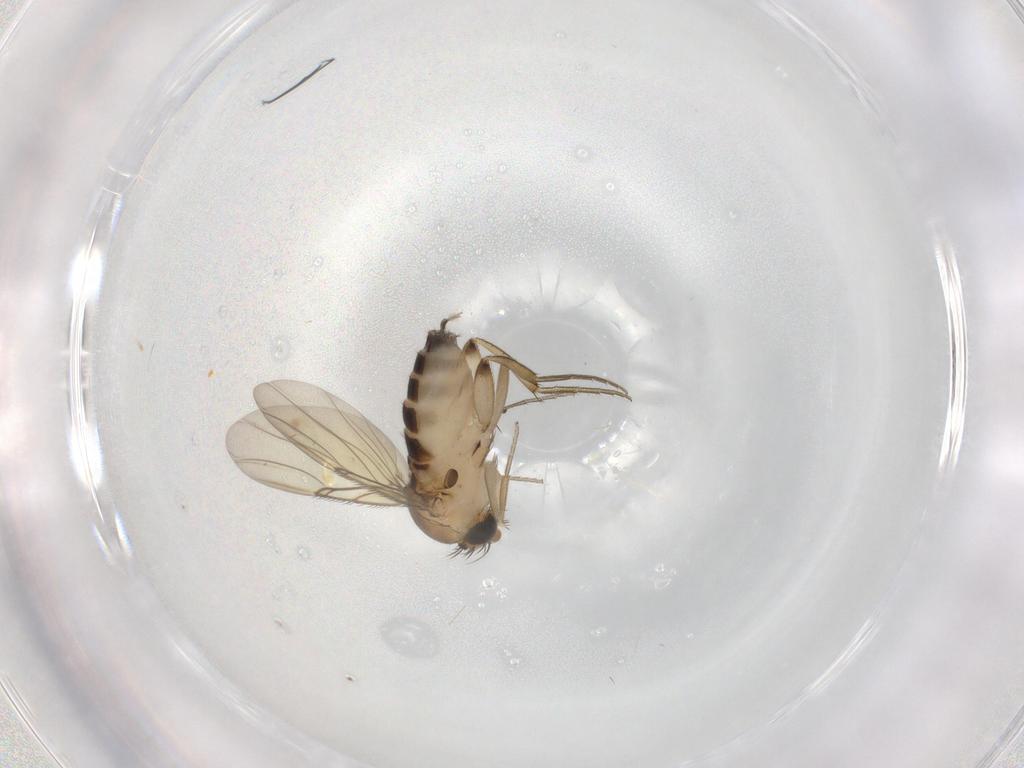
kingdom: Animalia
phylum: Arthropoda
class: Insecta
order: Diptera
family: Phoridae
